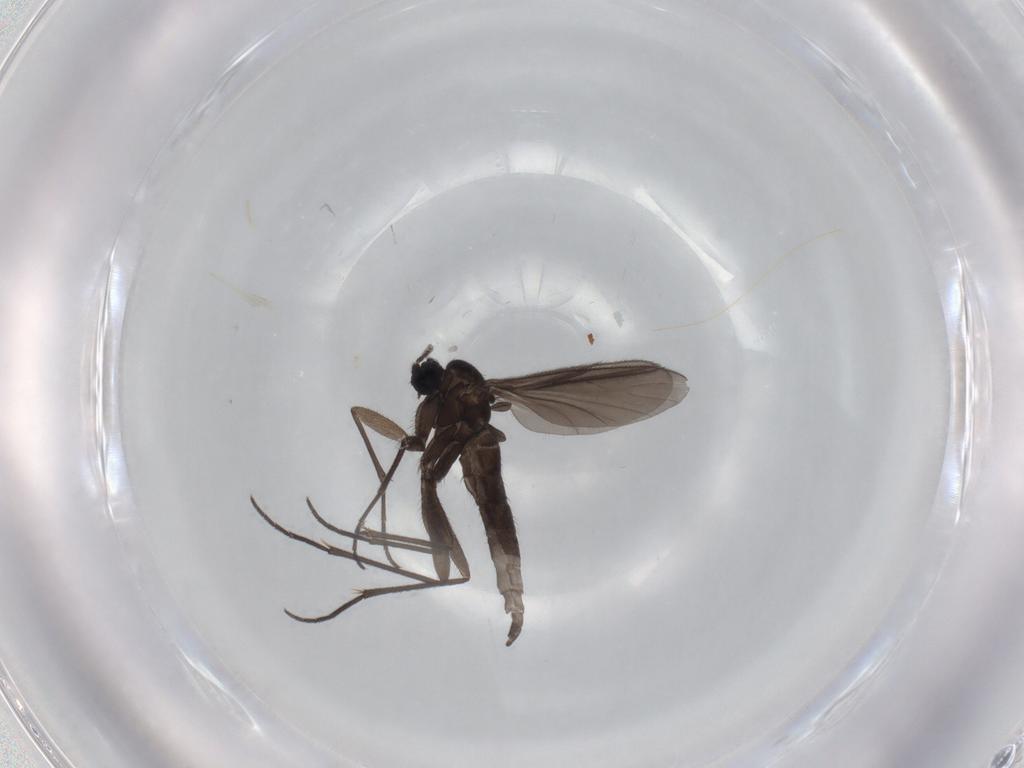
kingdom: Animalia
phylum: Arthropoda
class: Insecta
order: Diptera
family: Sciaridae
